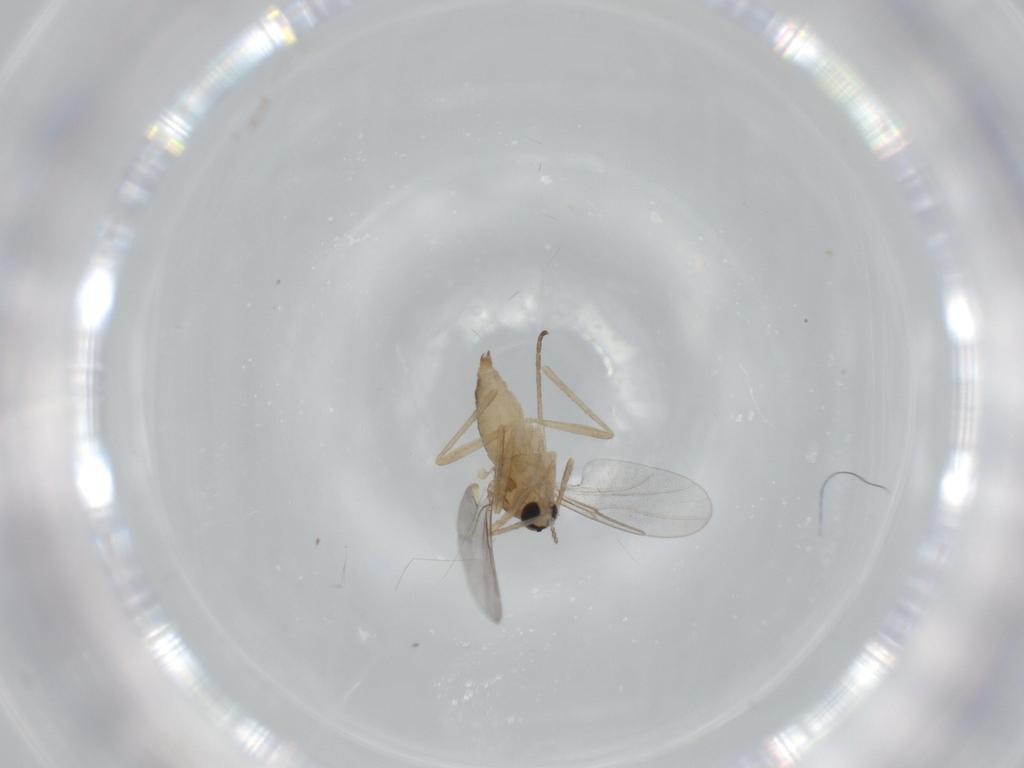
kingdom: Animalia
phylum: Arthropoda
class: Insecta
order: Diptera
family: Cecidomyiidae
